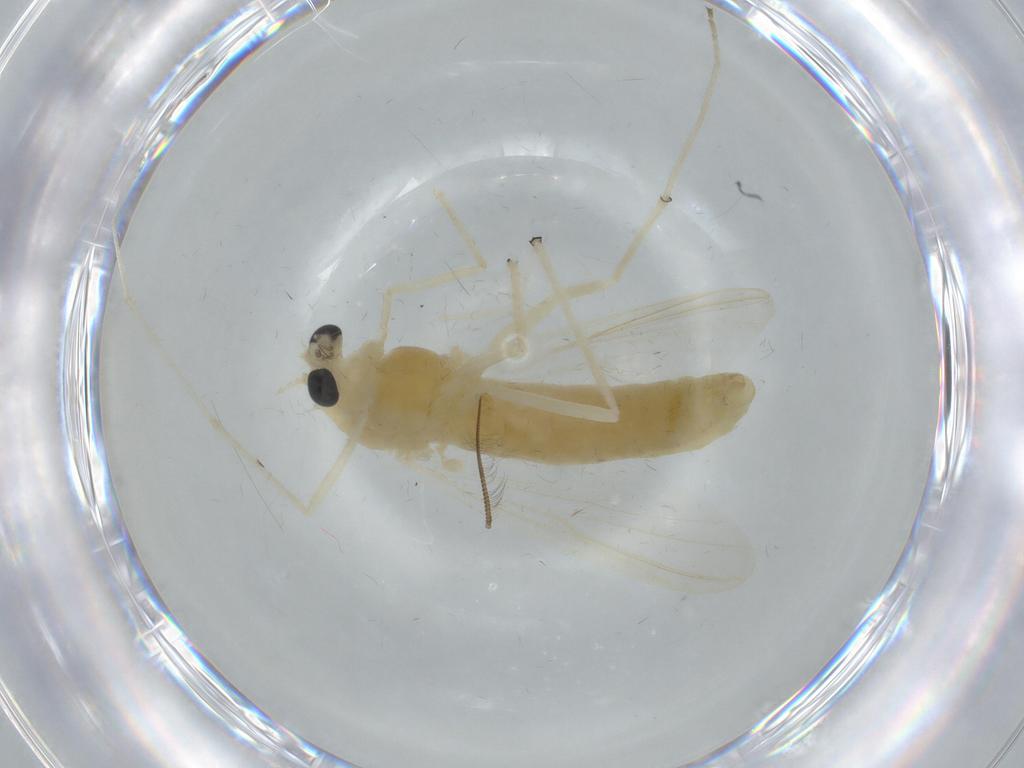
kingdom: Animalia
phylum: Arthropoda
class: Insecta
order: Diptera
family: Chironomidae
